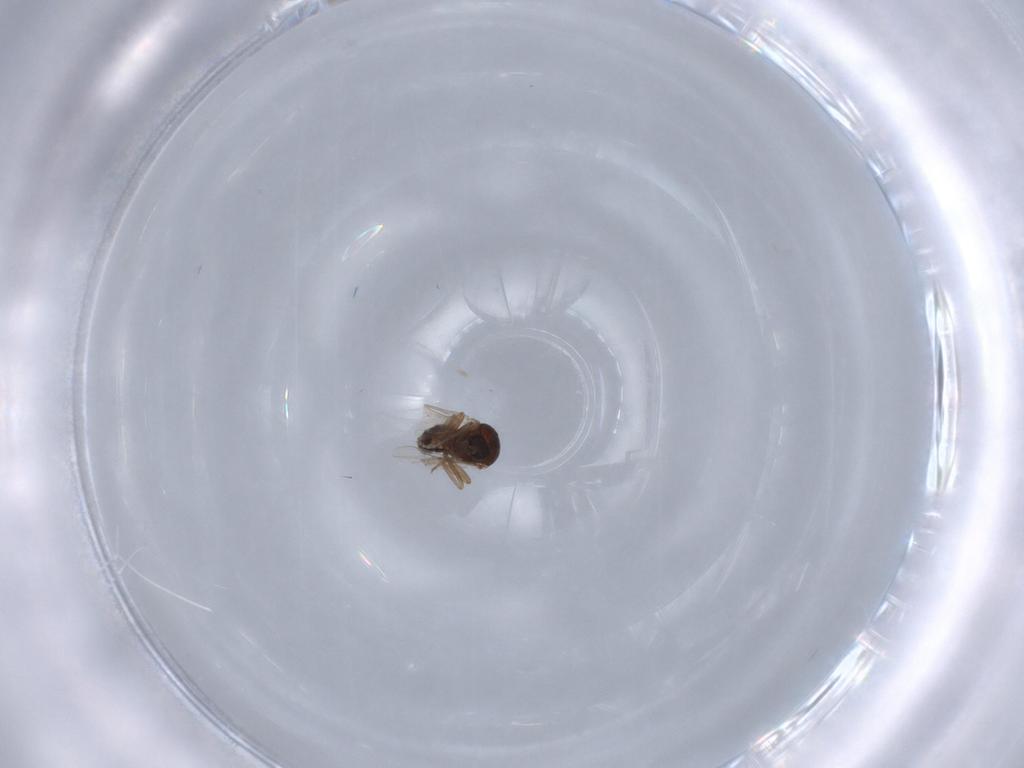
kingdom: Animalia
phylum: Arthropoda
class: Insecta
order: Diptera
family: Ceratopogonidae
